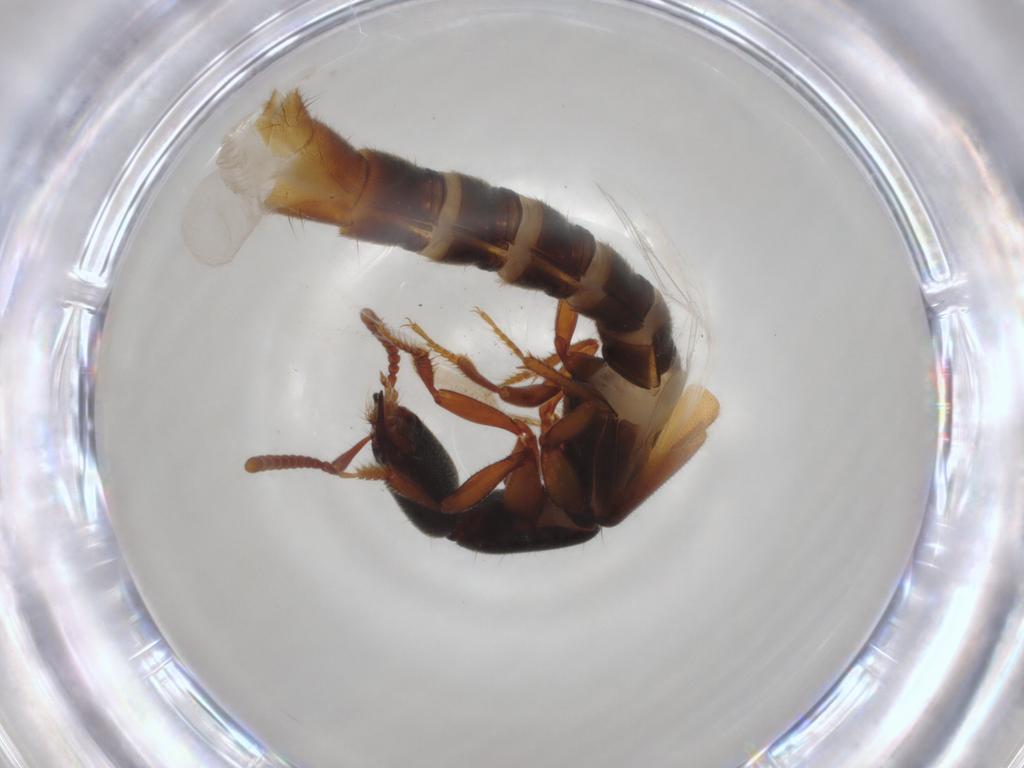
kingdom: Animalia
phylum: Arthropoda
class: Insecta
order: Coleoptera
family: Staphylinidae
